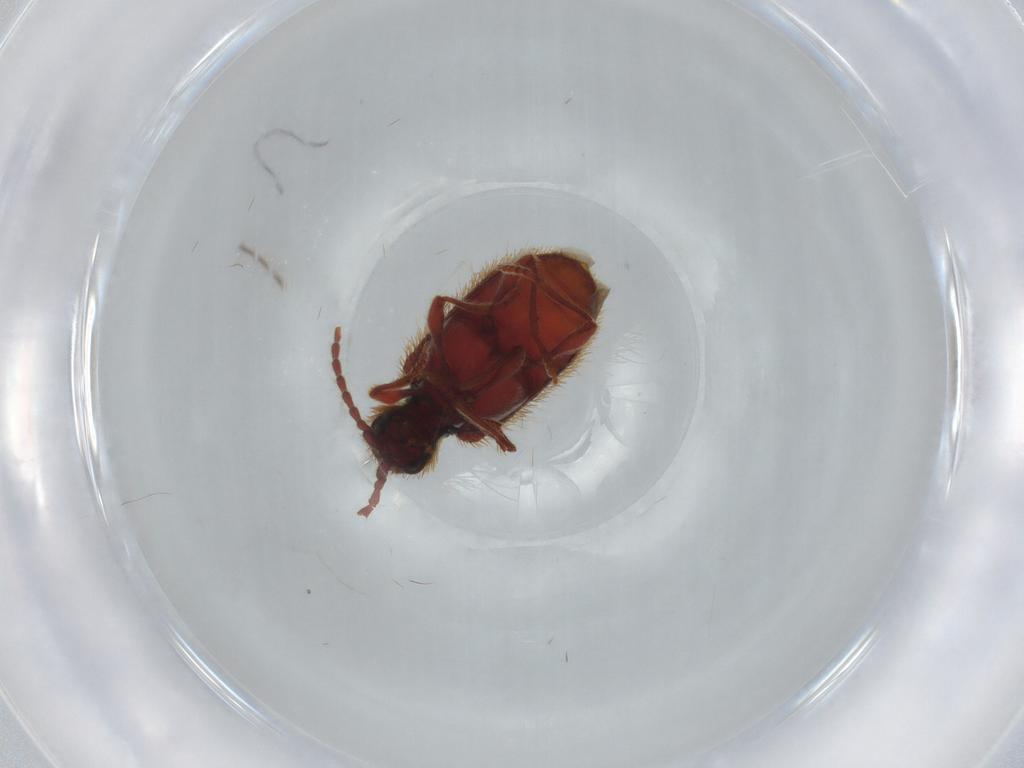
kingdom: Animalia
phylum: Arthropoda
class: Insecta
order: Coleoptera
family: Ptinidae
